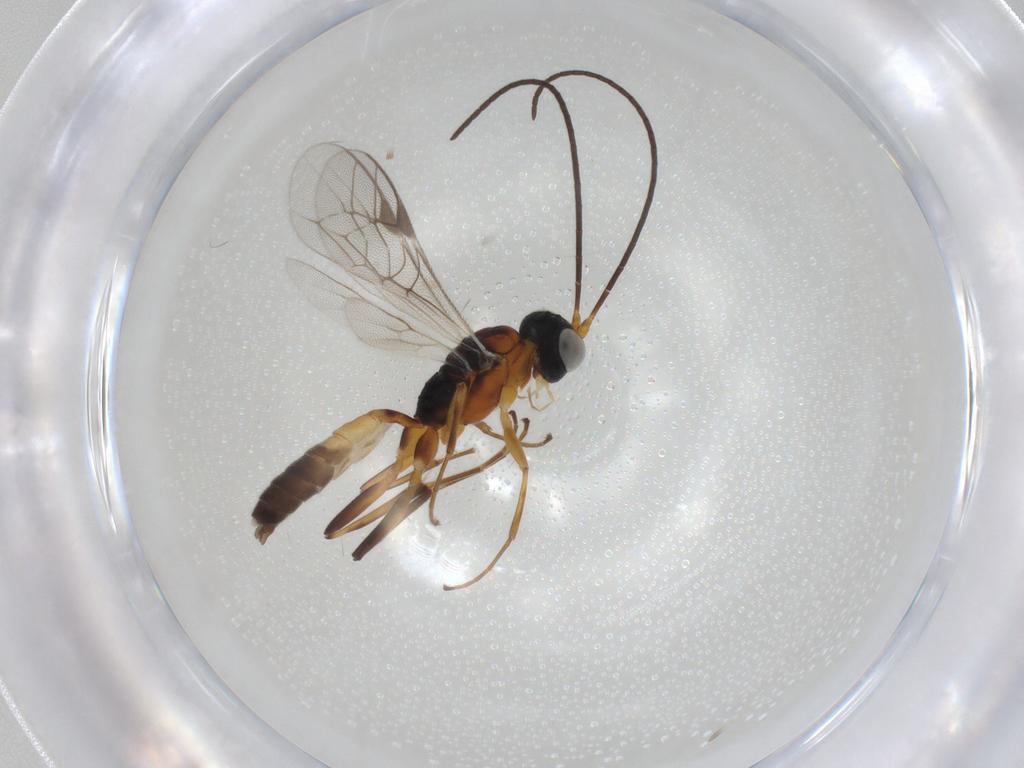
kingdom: Animalia
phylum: Arthropoda
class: Insecta
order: Hymenoptera
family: Ichneumonidae
